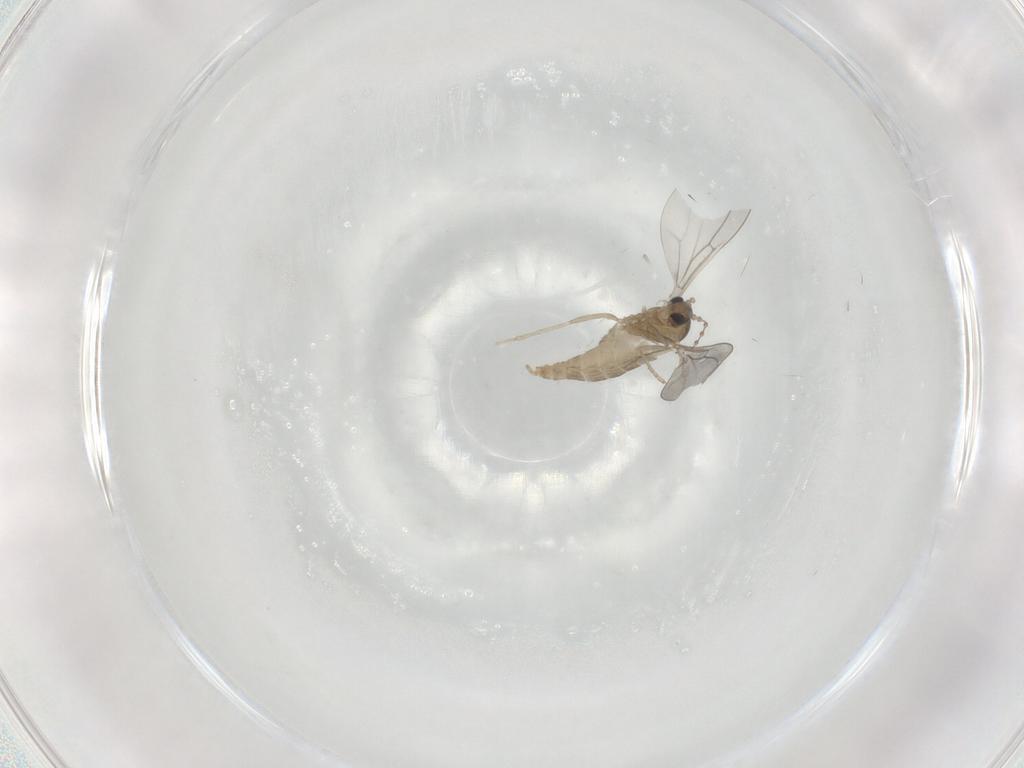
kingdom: Animalia
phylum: Arthropoda
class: Insecta
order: Diptera
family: Cecidomyiidae
